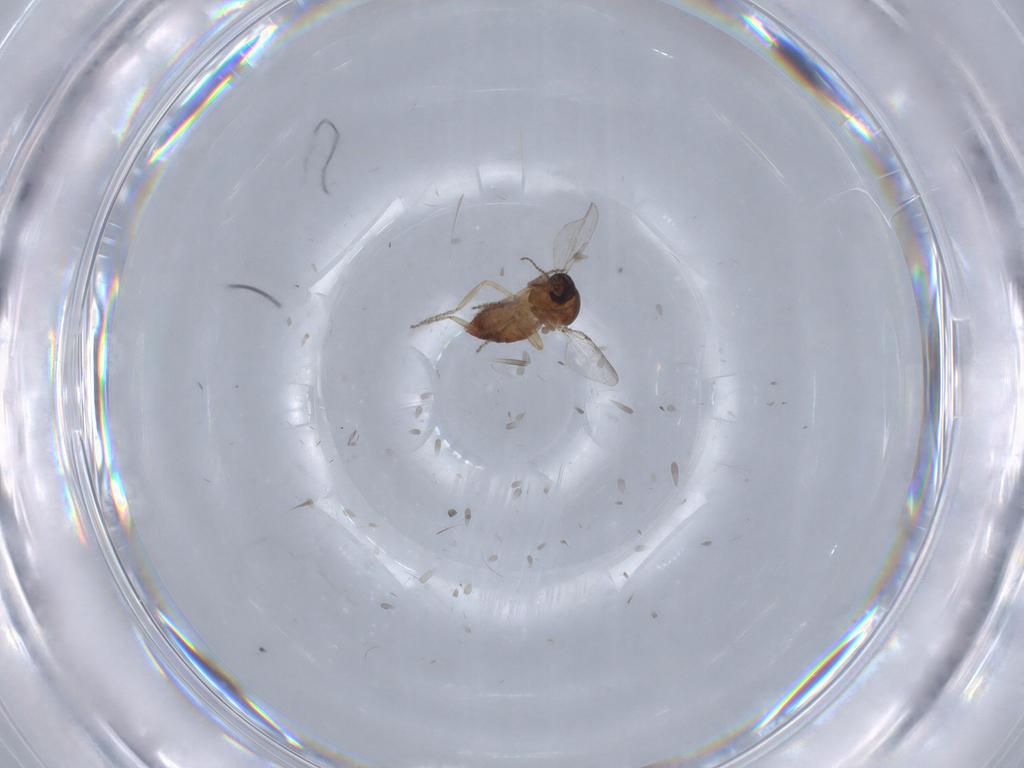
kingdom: Animalia
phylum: Arthropoda
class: Insecta
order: Diptera
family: Ceratopogonidae
